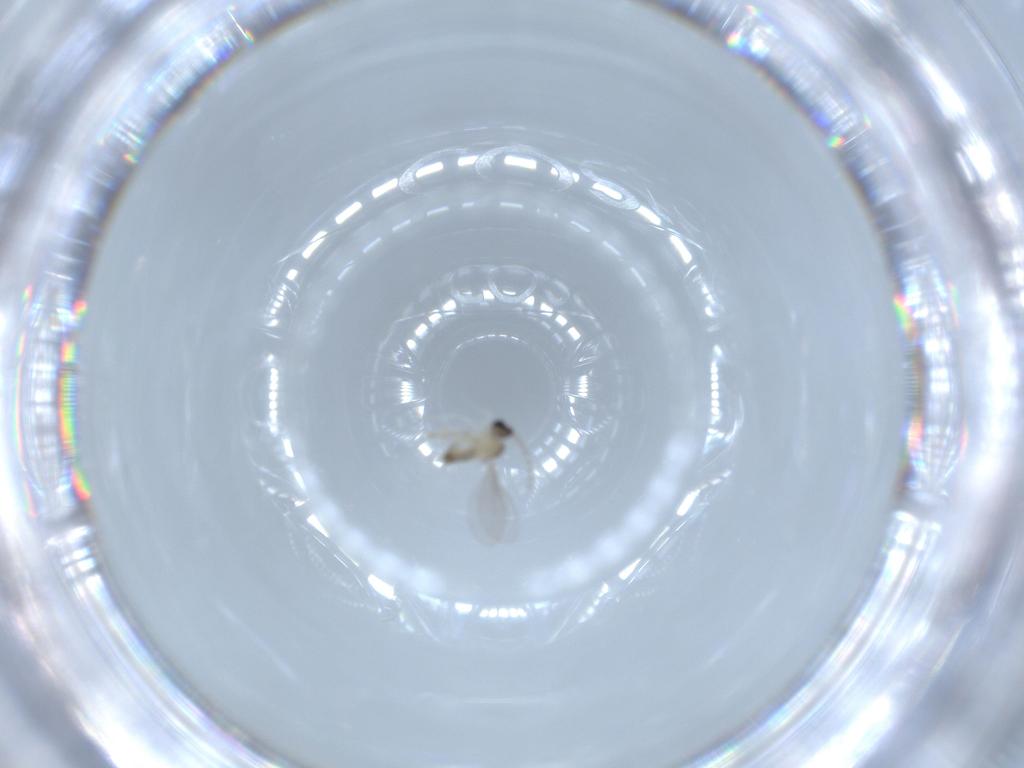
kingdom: Animalia
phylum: Arthropoda
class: Insecta
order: Diptera
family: Cecidomyiidae
